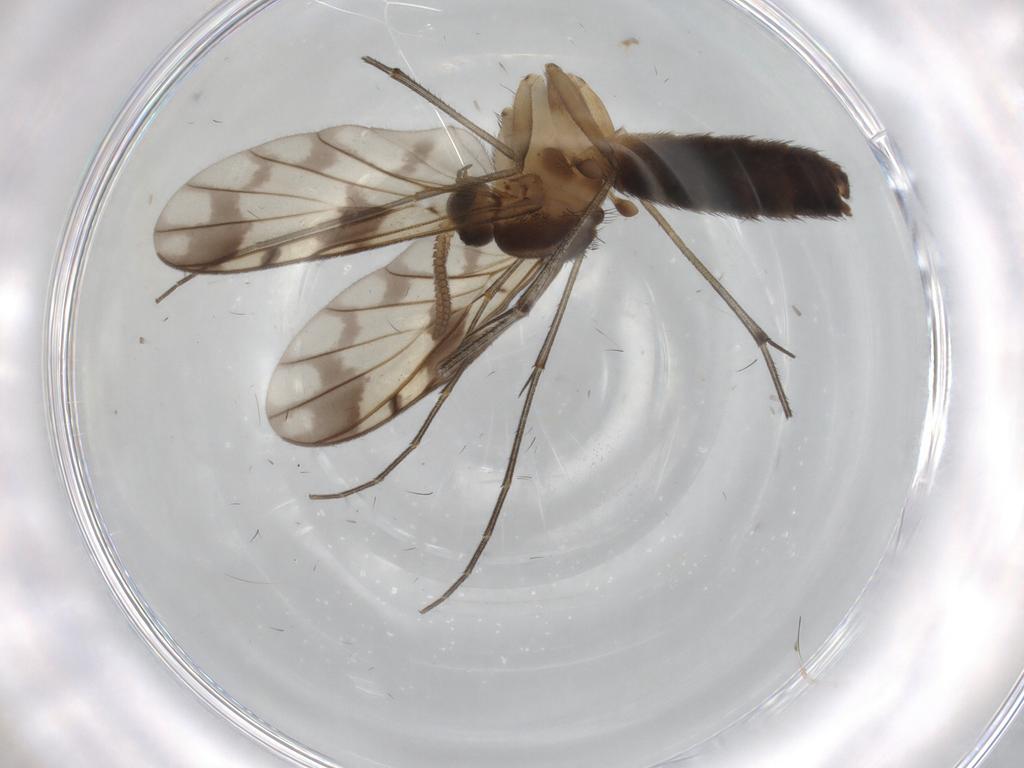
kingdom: Animalia
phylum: Arthropoda
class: Insecta
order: Diptera
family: Keroplatidae
